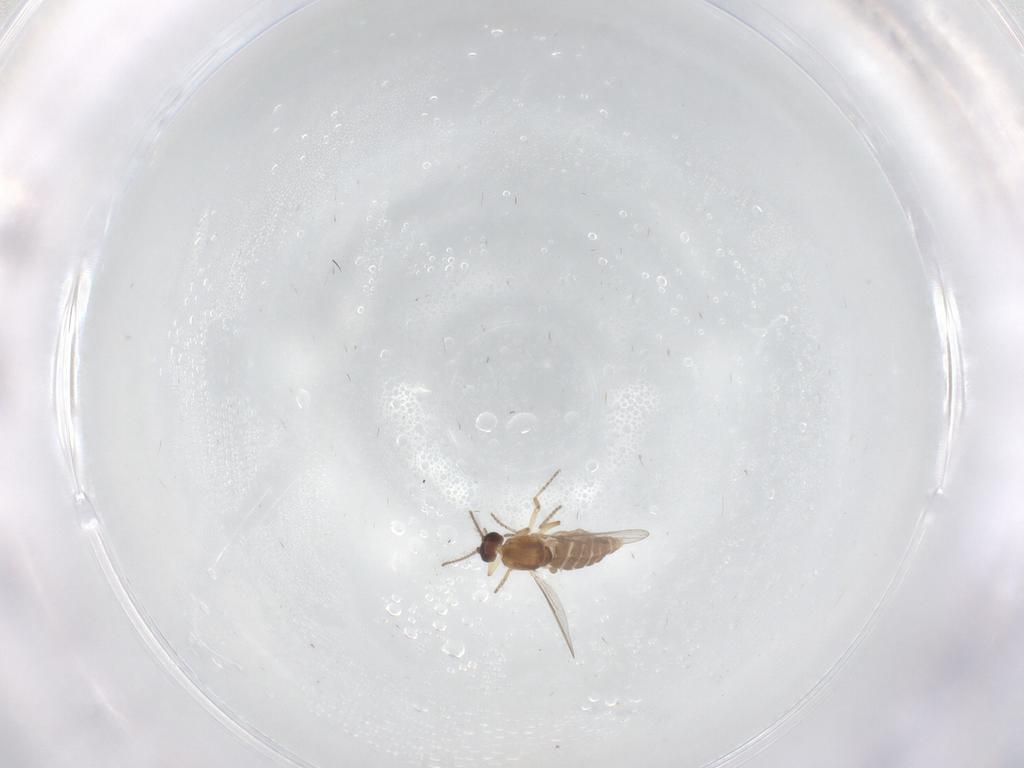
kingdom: Animalia
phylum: Arthropoda
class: Insecta
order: Diptera
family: Ceratopogonidae
